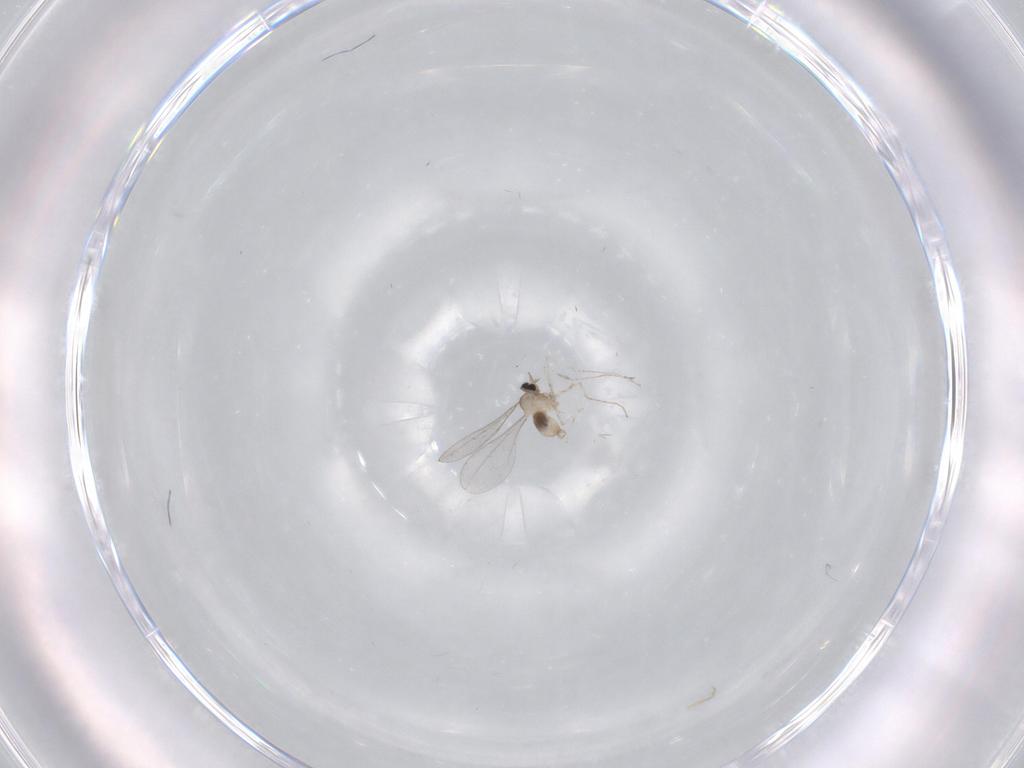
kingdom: Animalia
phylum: Arthropoda
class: Insecta
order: Diptera
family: Cecidomyiidae
